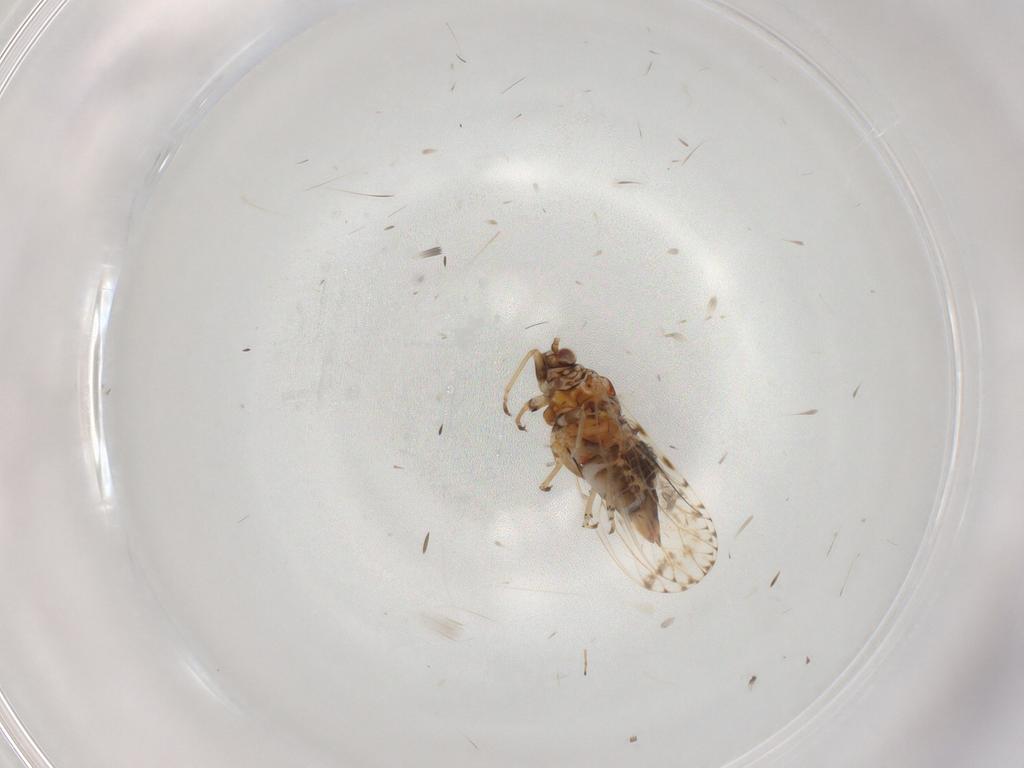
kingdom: Animalia
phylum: Arthropoda
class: Insecta
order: Hemiptera
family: Psyllidae
